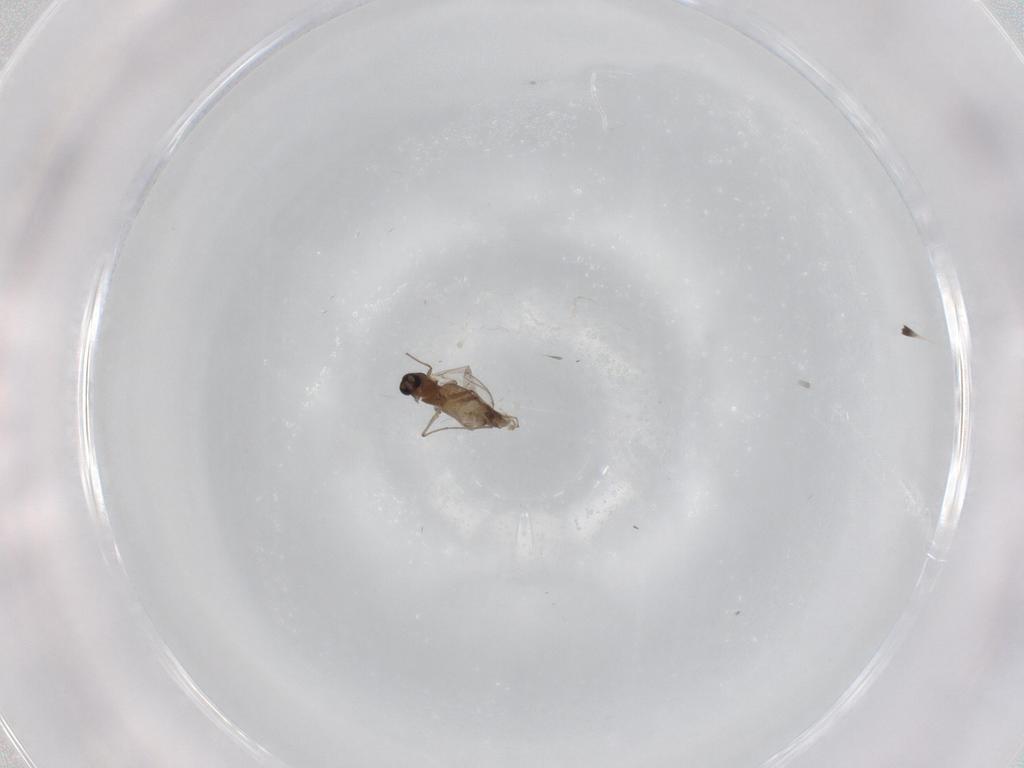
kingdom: Animalia
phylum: Arthropoda
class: Insecta
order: Diptera
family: Chironomidae
